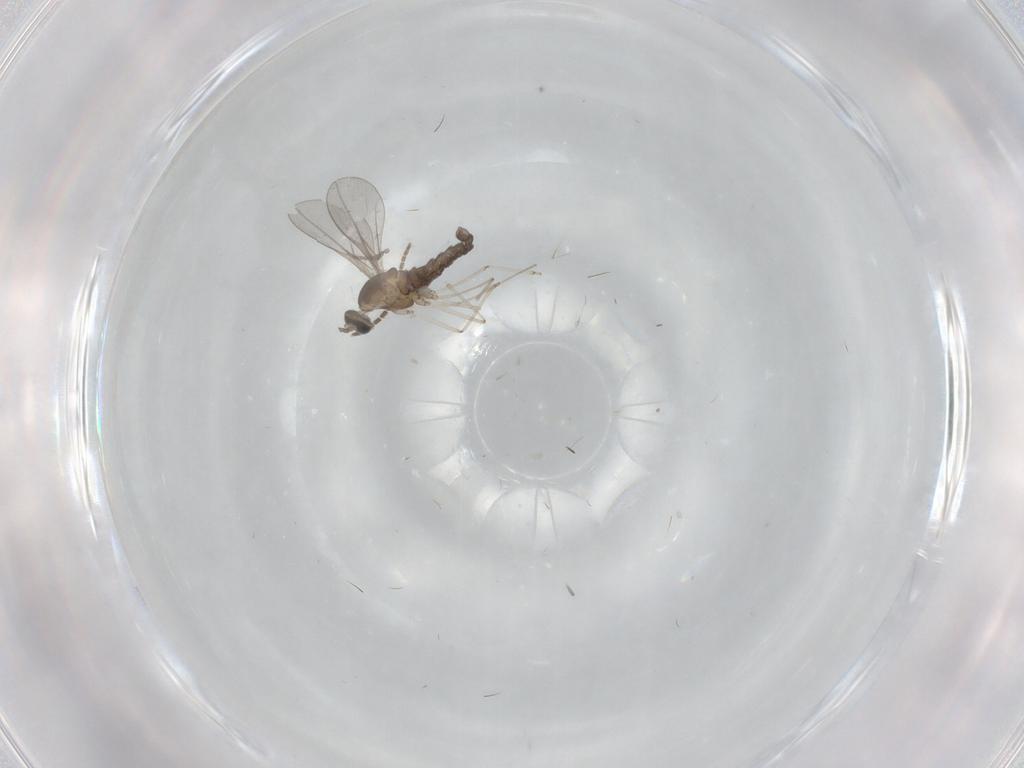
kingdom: Animalia
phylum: Arthropoda
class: Insecta
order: Diptera
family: Cecidomyiidae
